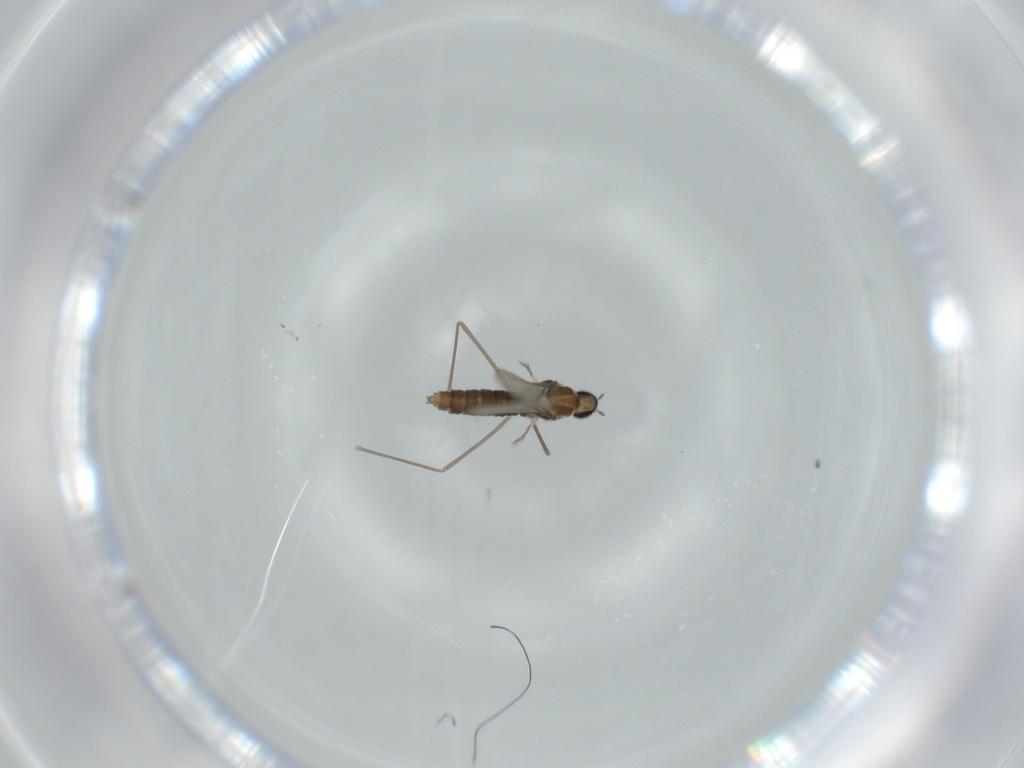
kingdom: Animalia
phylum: Arthropoda
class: Insecta
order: Diptera
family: Cecidomyiidae
